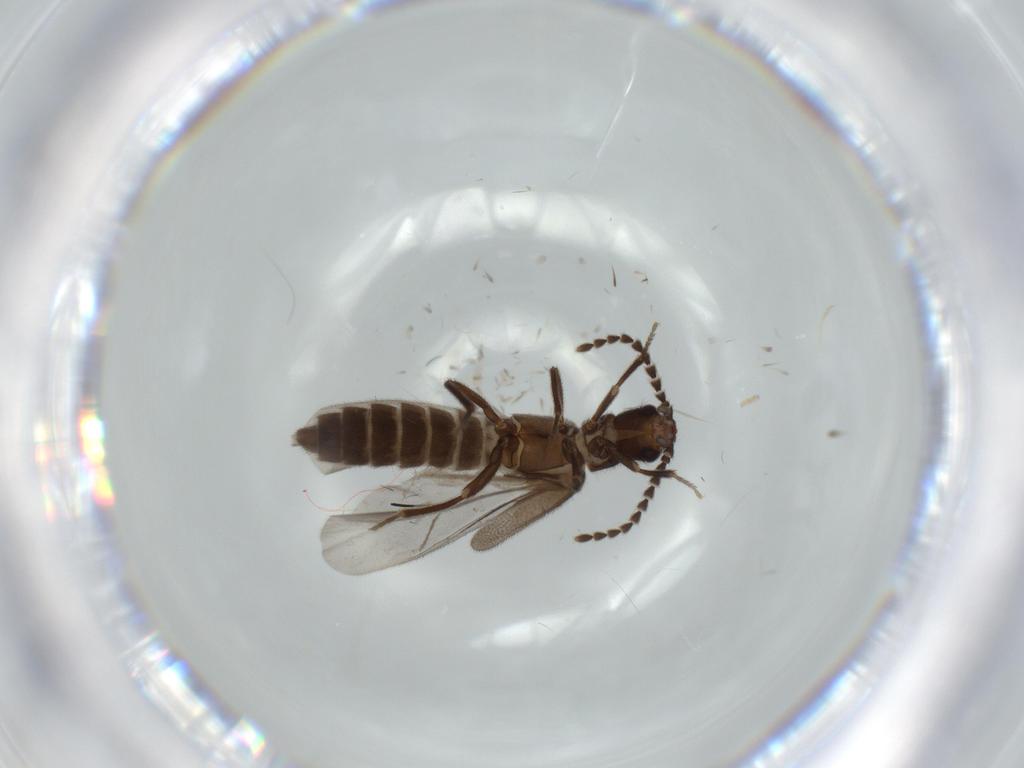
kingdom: Animalia
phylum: Arthropoda
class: Insecta
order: Coleoptera
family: Omethidae
